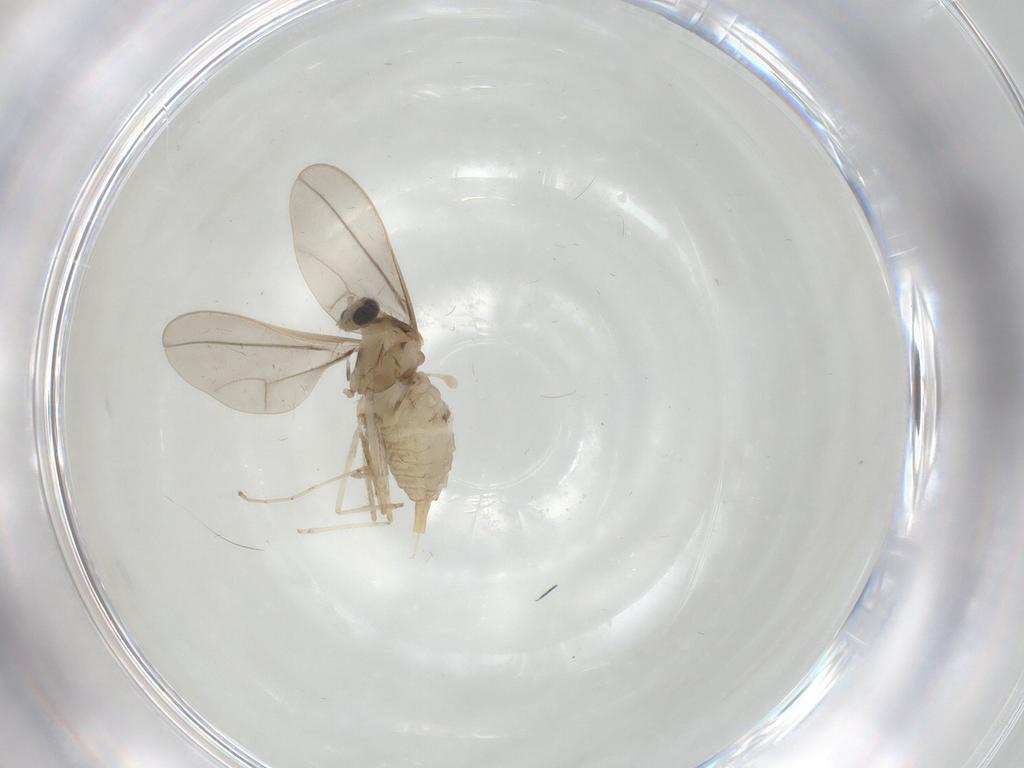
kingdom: Animalia
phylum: Arthropoda
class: Insecta
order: Diptera
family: Cecidomyiidae
